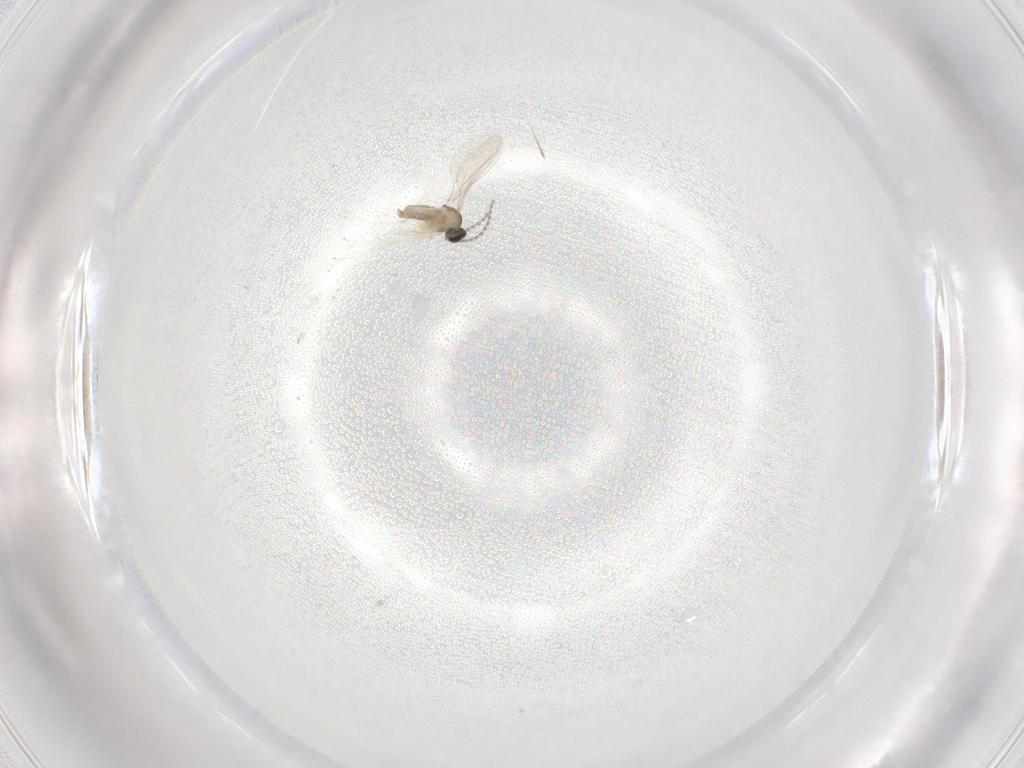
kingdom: Animalia
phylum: Arthropoda
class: Insecta
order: Diptera
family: Cecidomyiidae
